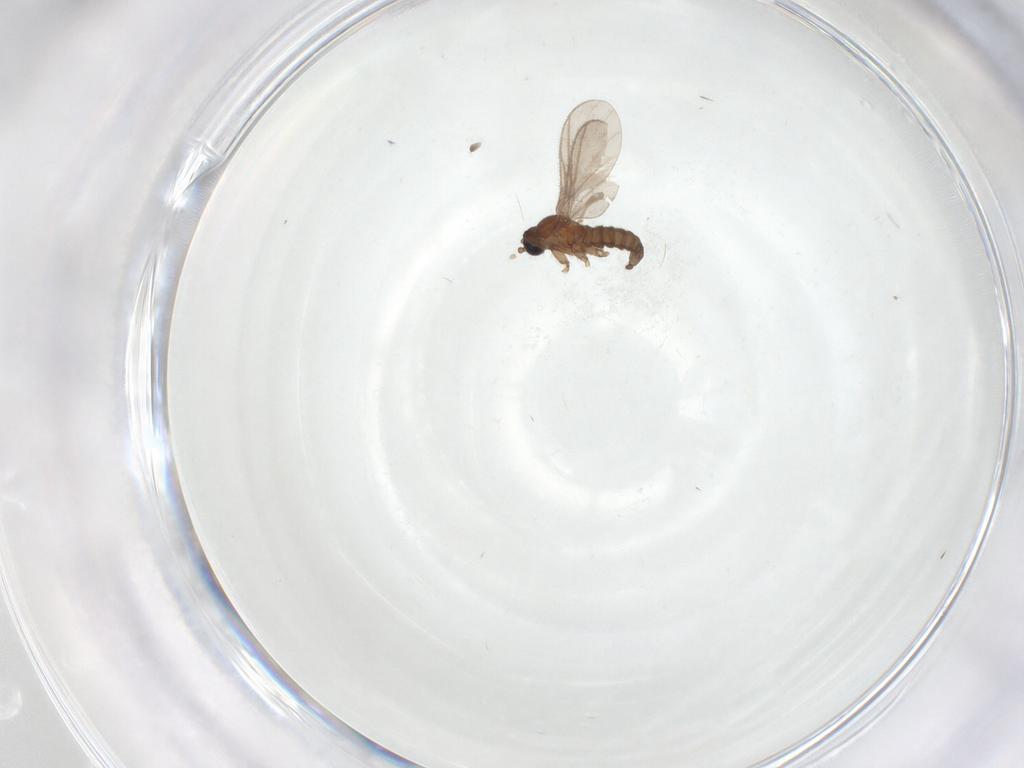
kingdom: Animalia
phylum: Arthropoda
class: Insecta
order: Diptera
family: Sciaridae
